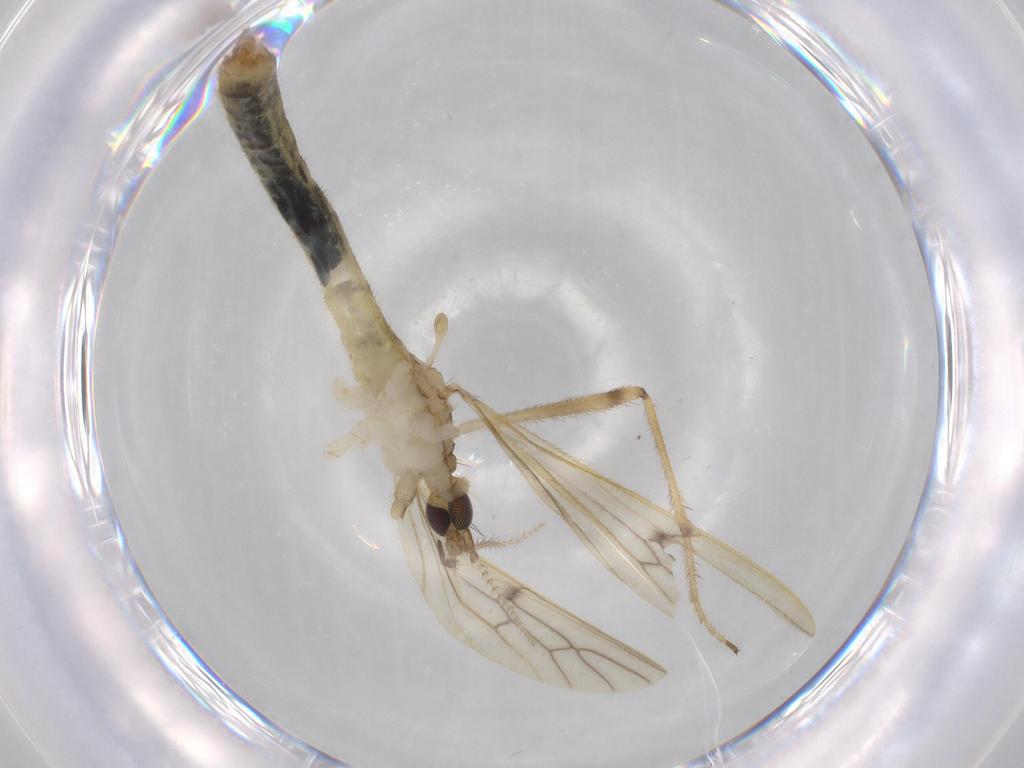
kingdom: Animalia
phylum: Arthropoda
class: Insecta
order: Diptera
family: Limoniidae
